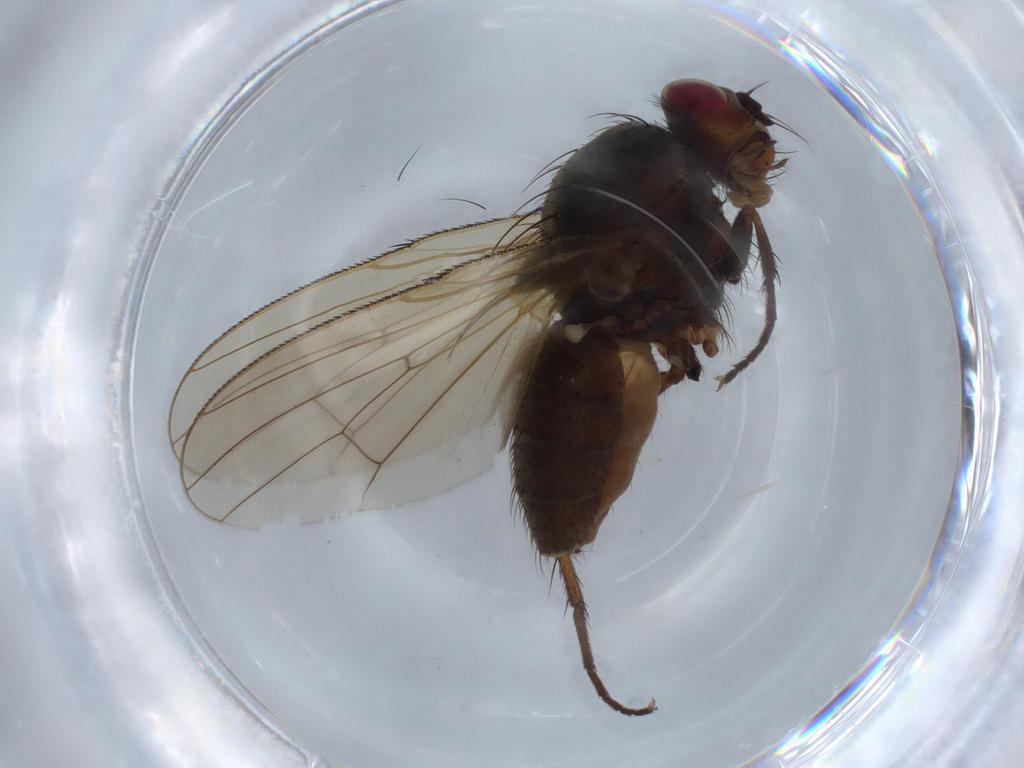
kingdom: Animalia
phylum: Arthropoda
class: Insecta
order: Diptera
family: Anthomyiidae
